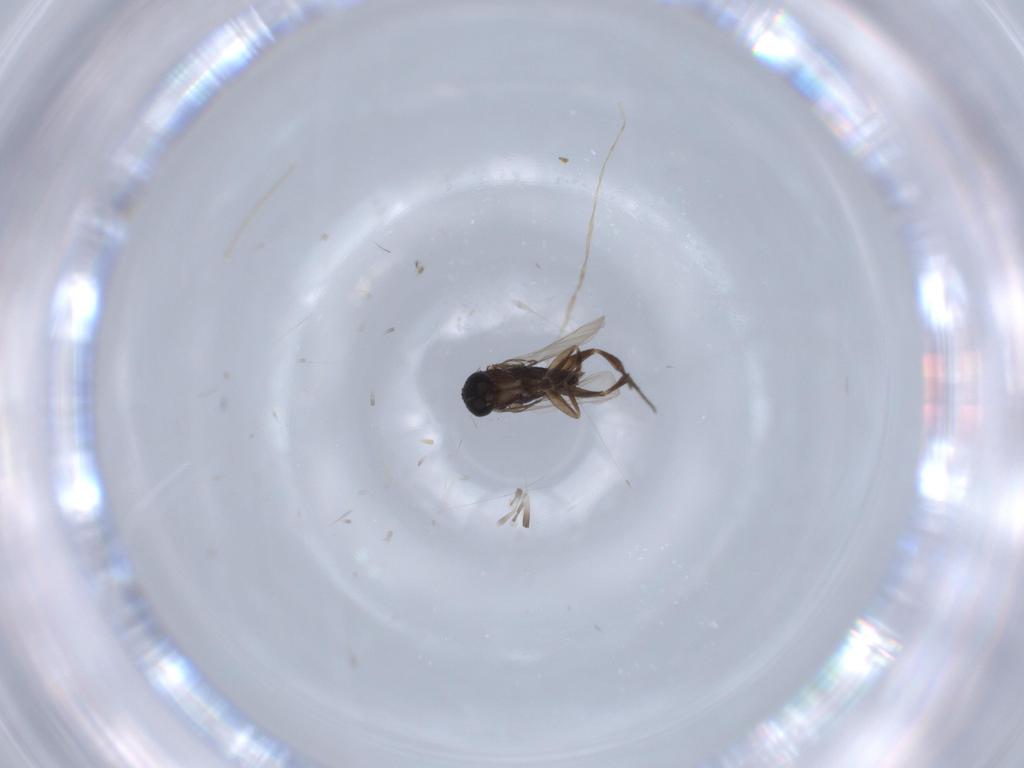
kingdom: Animalia
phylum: Arthropoda
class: Insecta
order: Diptera
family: Phoridae
